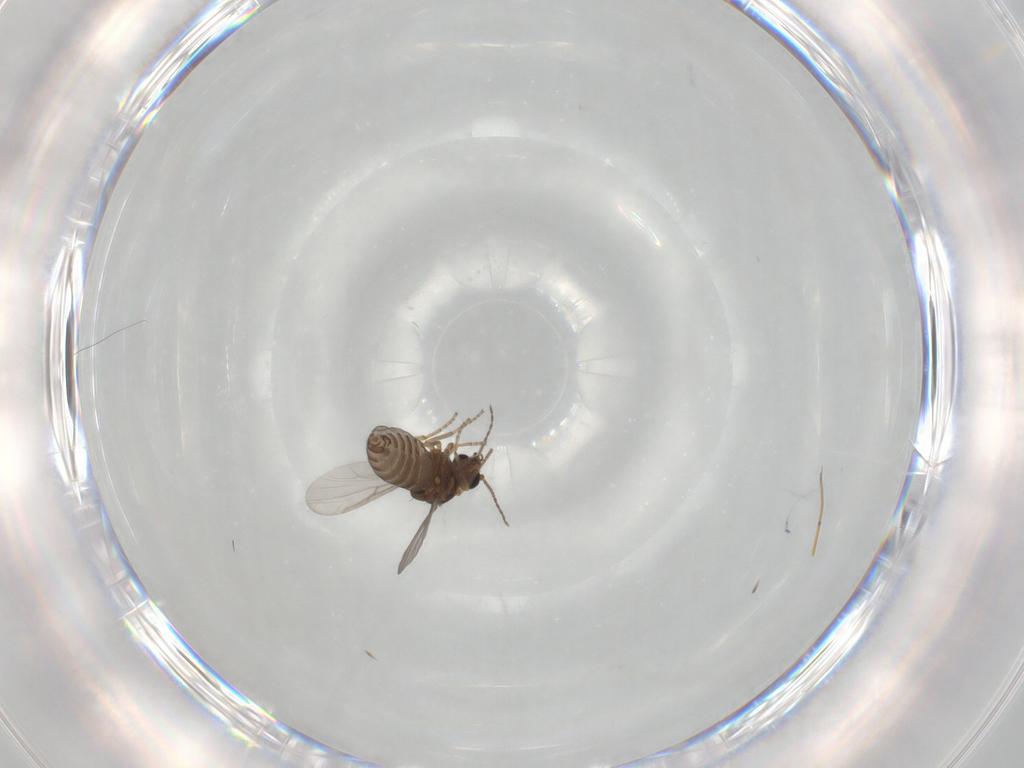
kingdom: Animalia
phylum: Arthropoda
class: Insecta
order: Diptera
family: Ceratopogonidae
